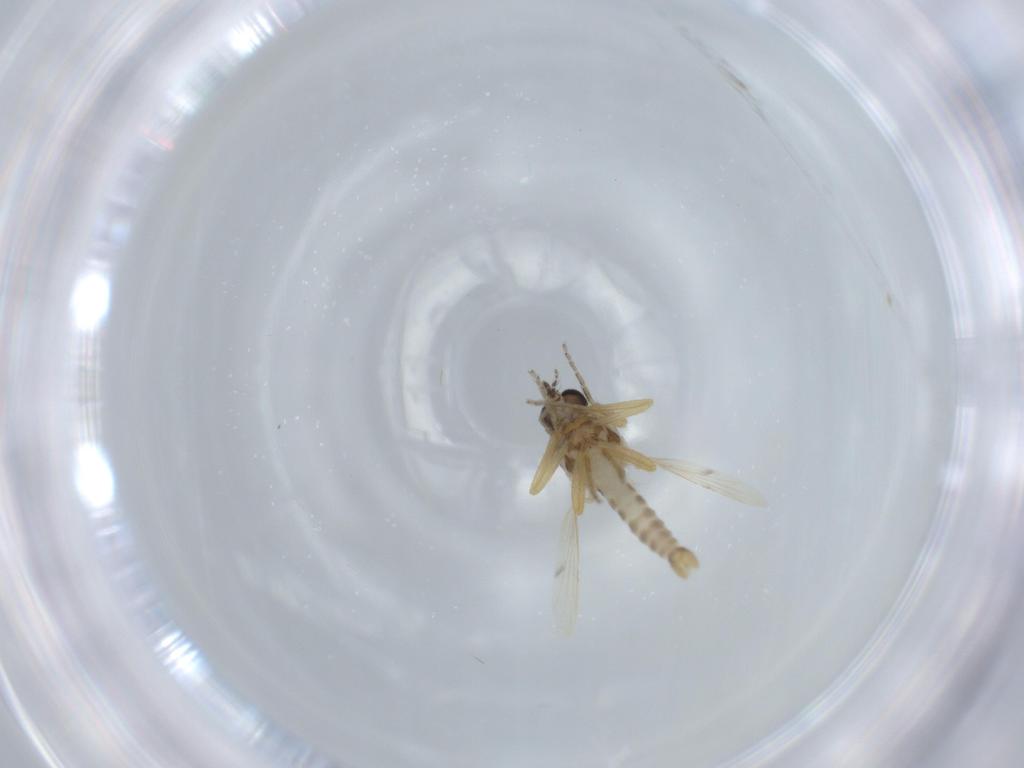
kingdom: Animalia
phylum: Arthropoda
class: Insecta
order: Diptera
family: Ceratopogonidae
